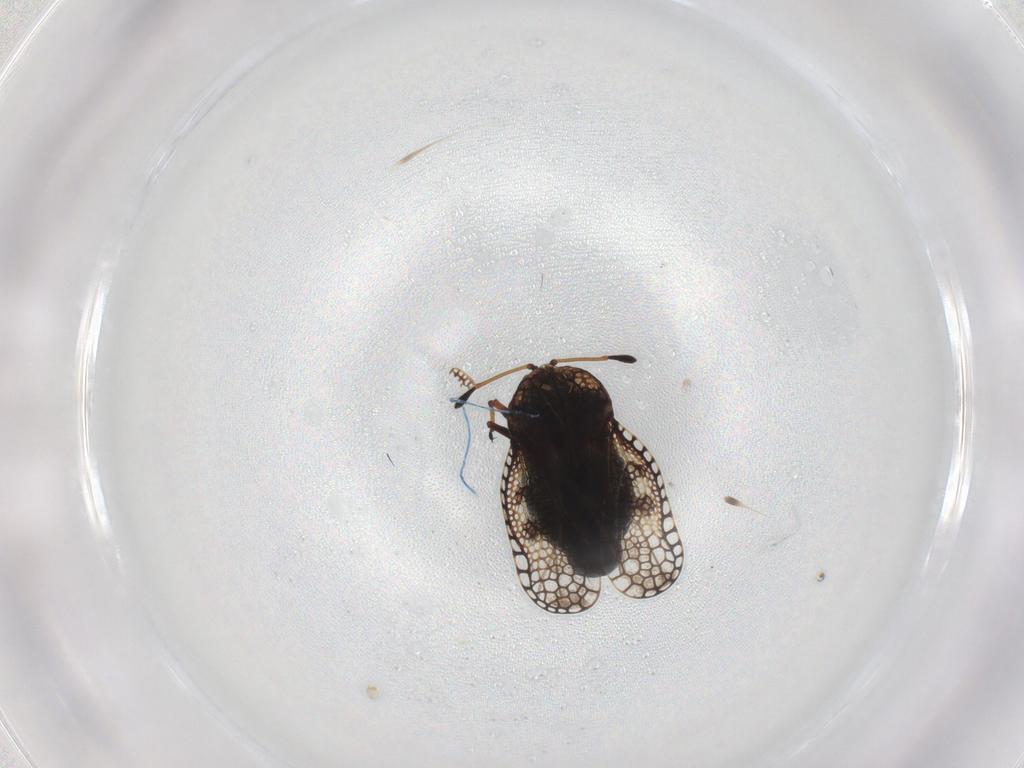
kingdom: Animalia
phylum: Arthropoda
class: Insecta
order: Hemiptera
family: Tingidae
